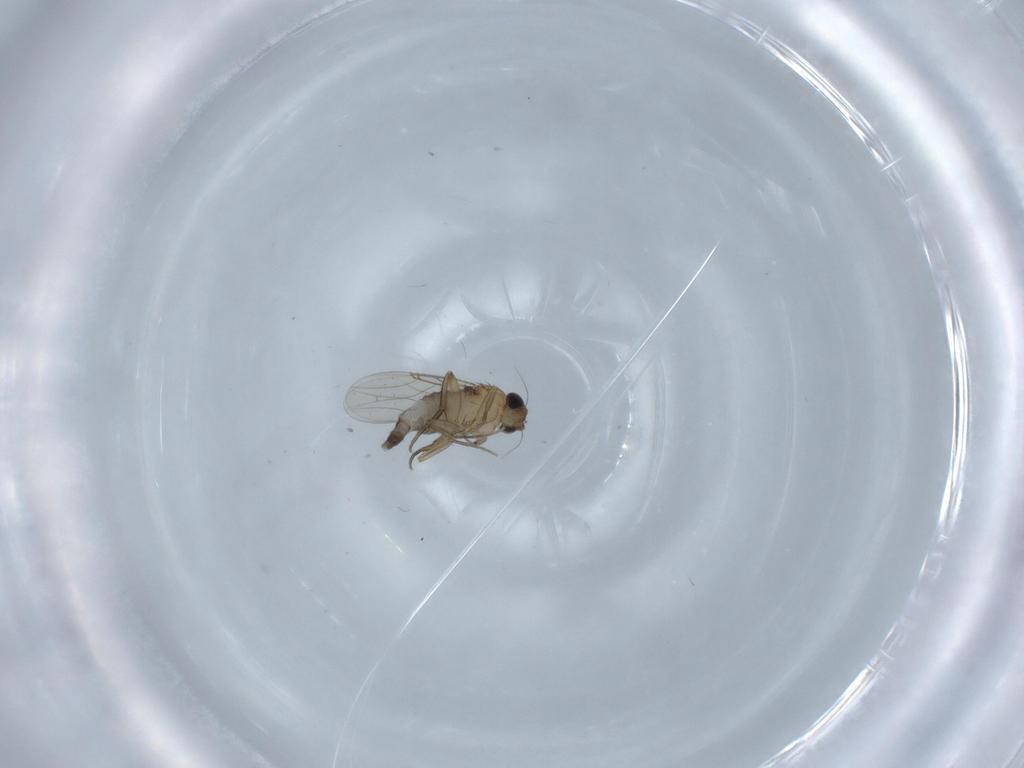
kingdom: Animalia
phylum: Arthropoda
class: Insecta
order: Diptera
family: Phoridae
